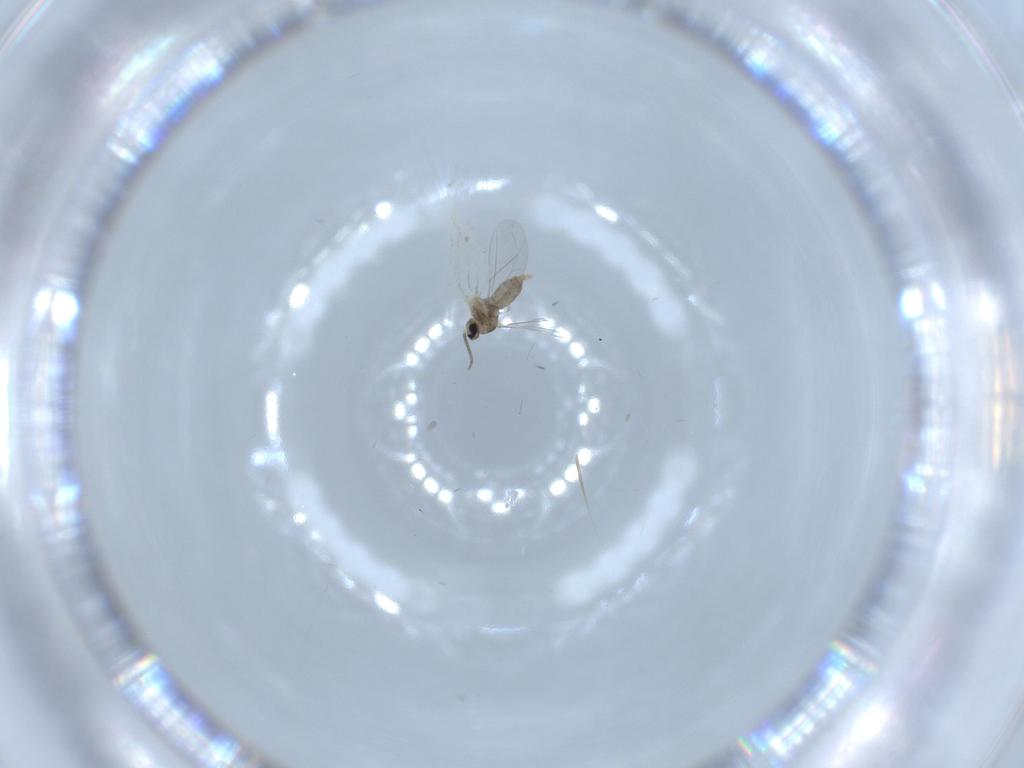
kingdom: Animalia
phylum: Arthropoda
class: Insecta
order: Diptera
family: Cecidomyiidae
